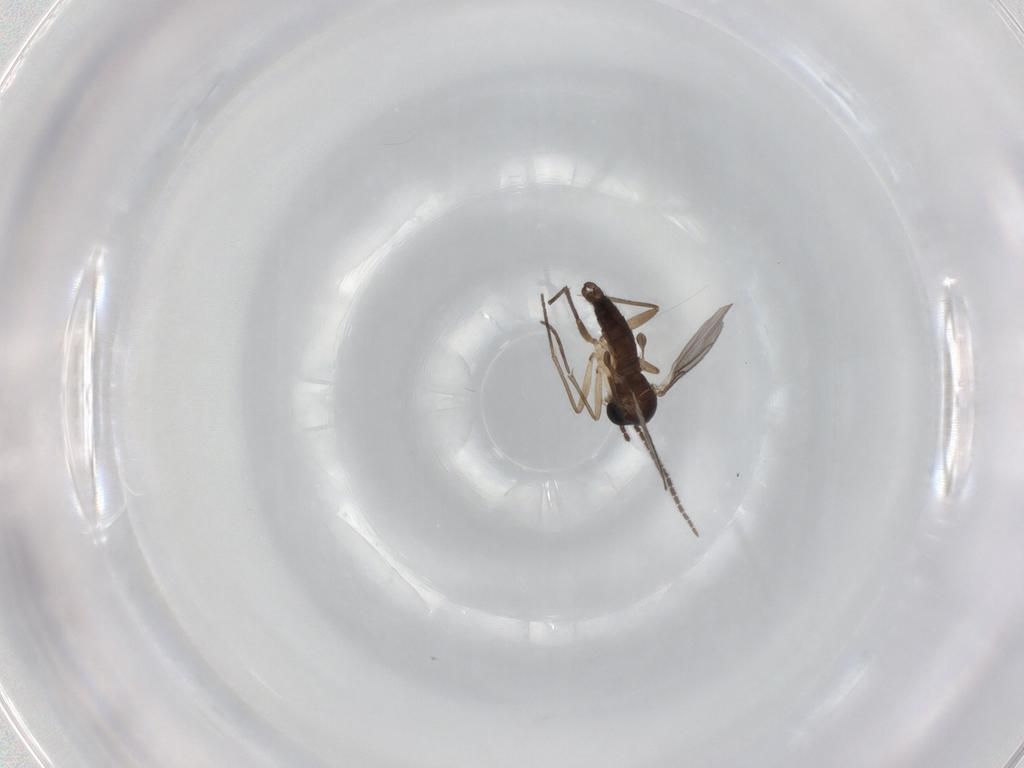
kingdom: Animalia
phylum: Arthropoda
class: Insecta
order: Diptera
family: Sciaridae
